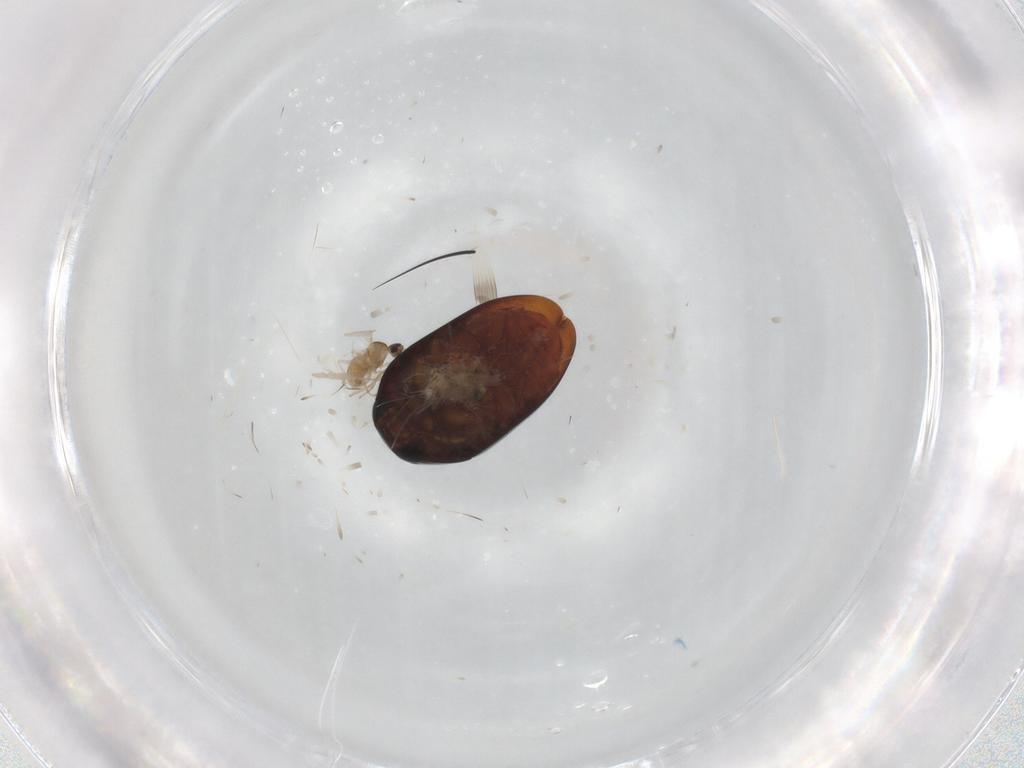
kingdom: Animalia
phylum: Arthropoda
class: Insecta
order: Coleoptera
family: Phalacridae
